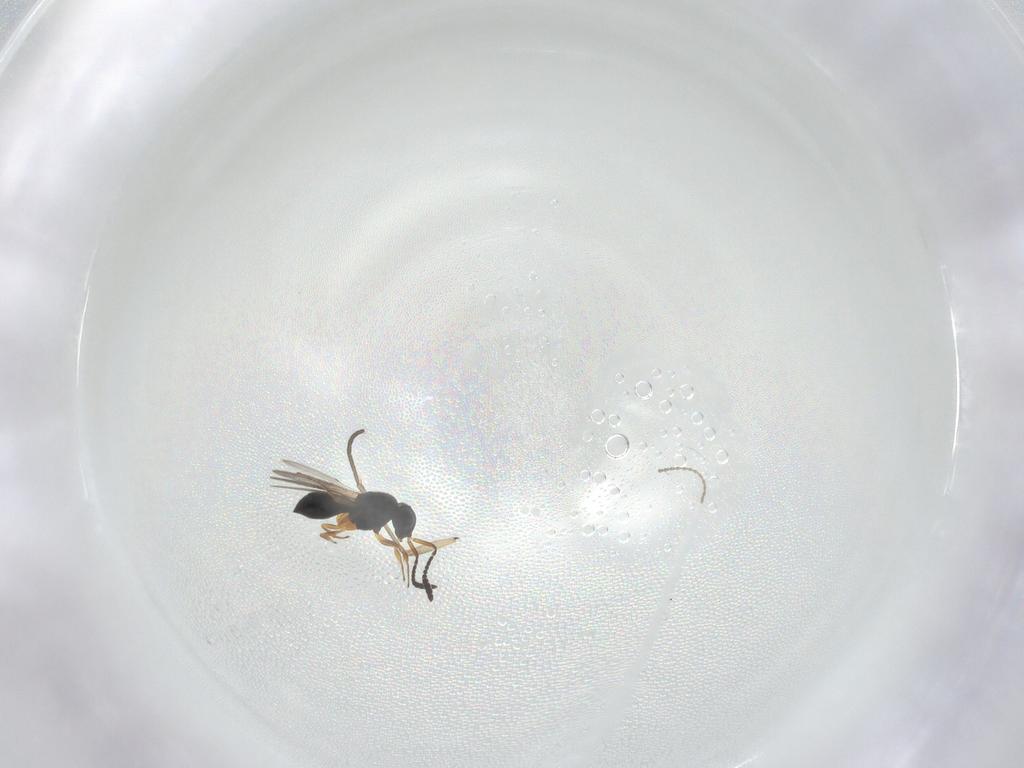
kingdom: Animalia
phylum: Arthropoda
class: Insecta
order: Hymenoptera
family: Scelionidae
